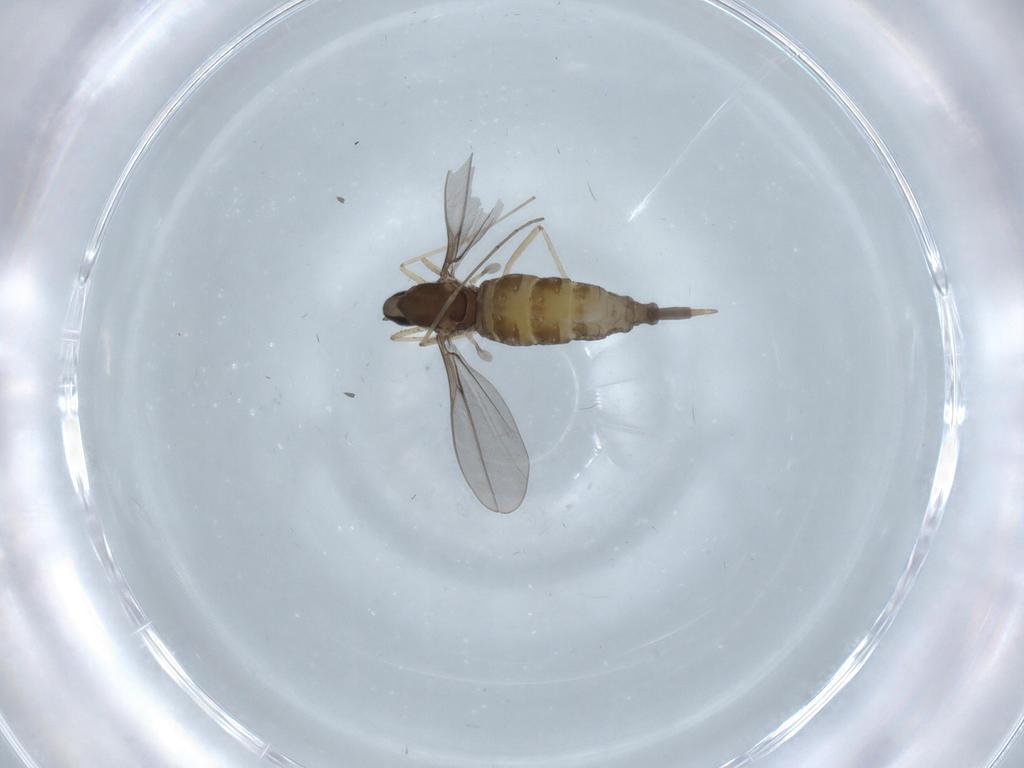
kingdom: Animalia
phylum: Arthropoda
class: Insecta
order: Diptera
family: Cecidomyiidae
